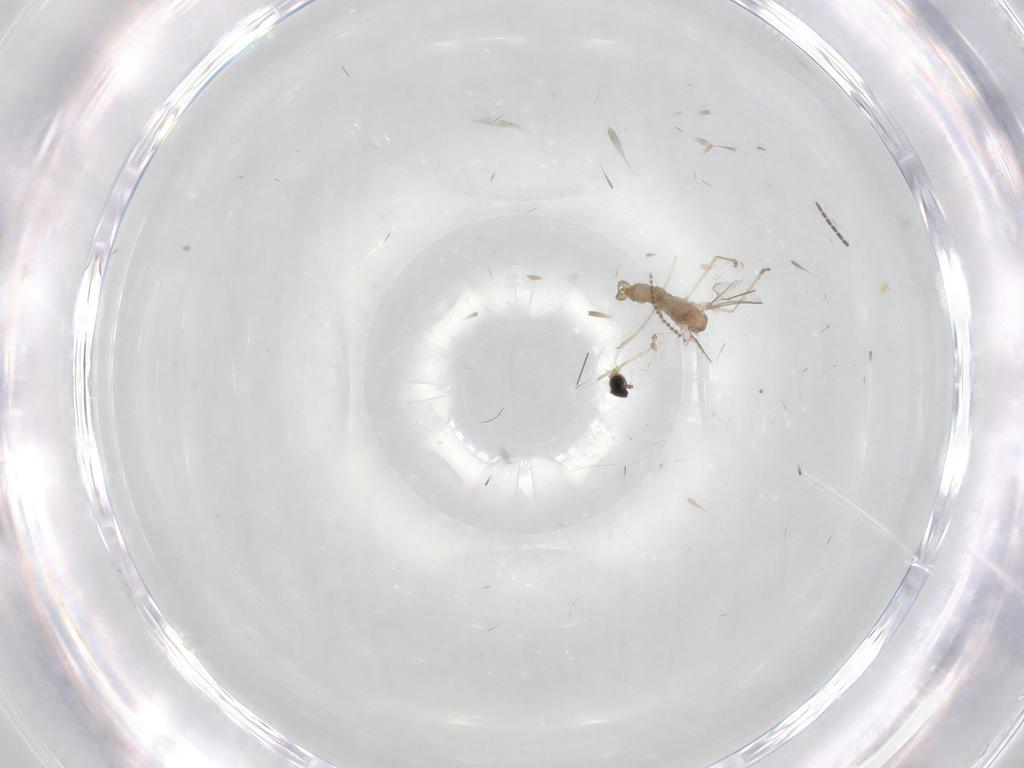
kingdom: Animalia
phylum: Arthropoda
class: Insecta
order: Diptera
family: Cecidomyiidae
